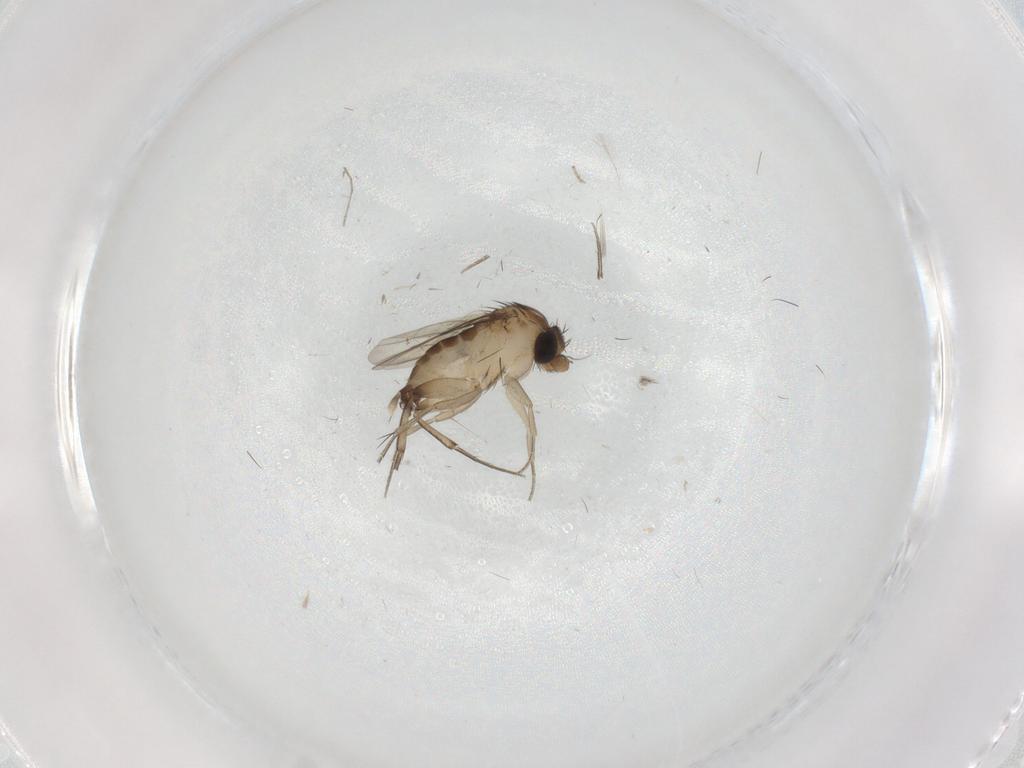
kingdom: Animalia
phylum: Arthropoda
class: Insecta
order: Diptera
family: Phoridae
